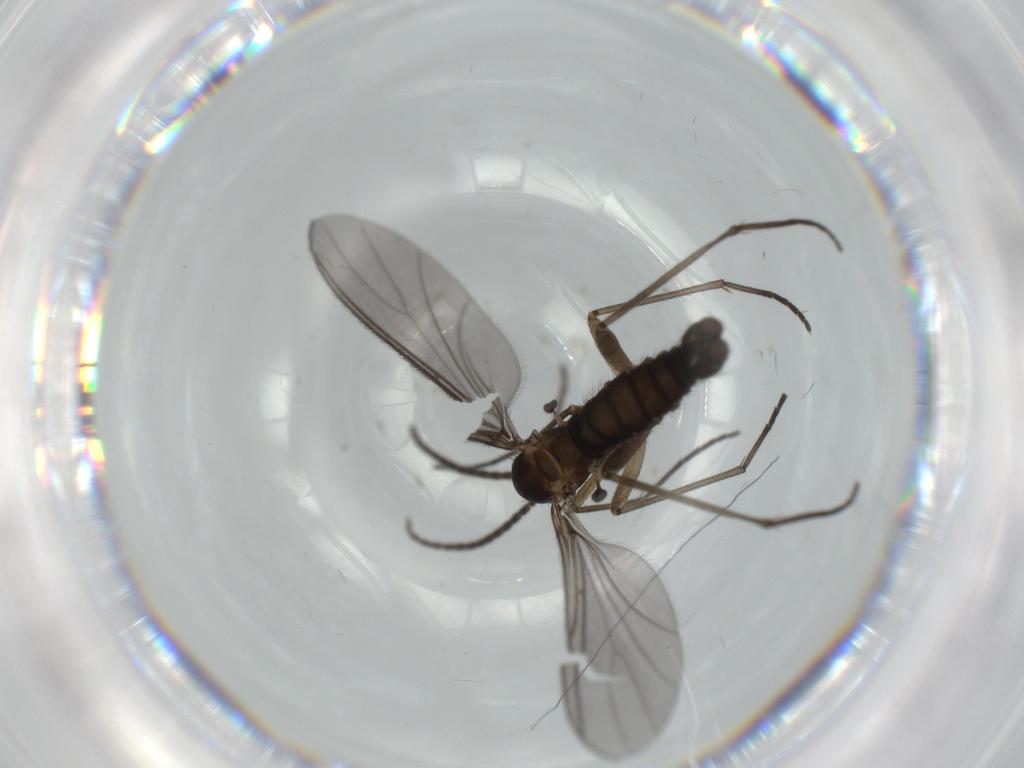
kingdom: Animalia
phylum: Arthropoda
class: Insecta
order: Diptera
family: Sciaridae
